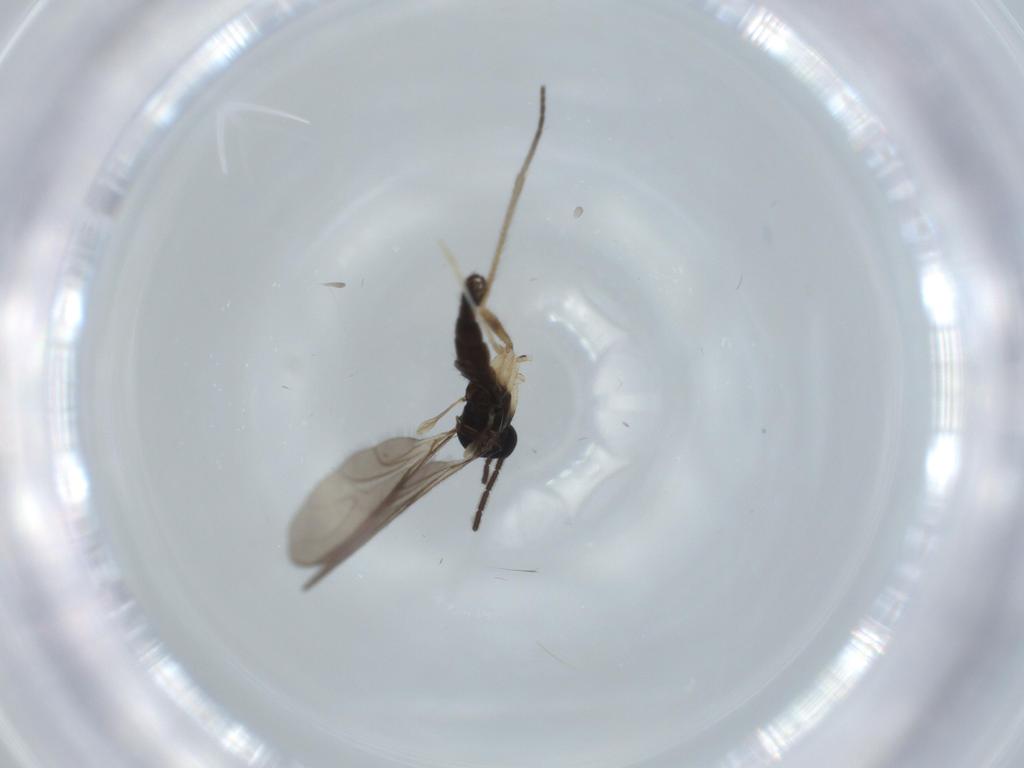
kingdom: Animalia
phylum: Arthropoda
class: Insecta
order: Diptera
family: Sciaridae
